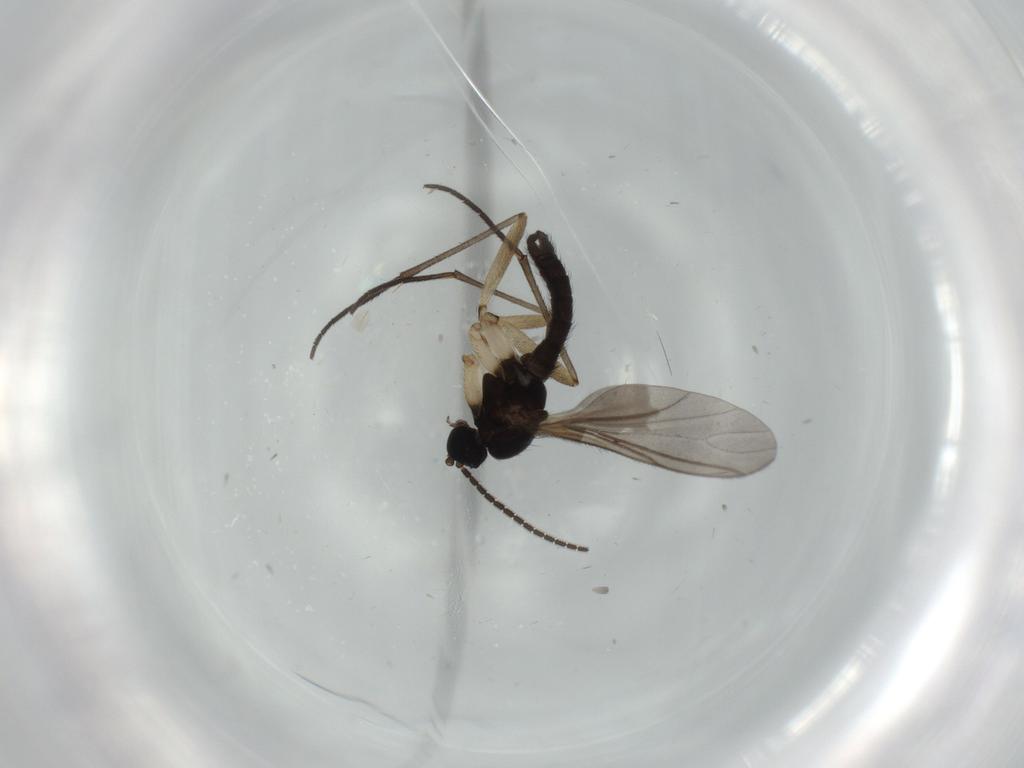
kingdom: Animalia
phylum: Arthropoda
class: Insecta
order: Diptera
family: Sciaridae
